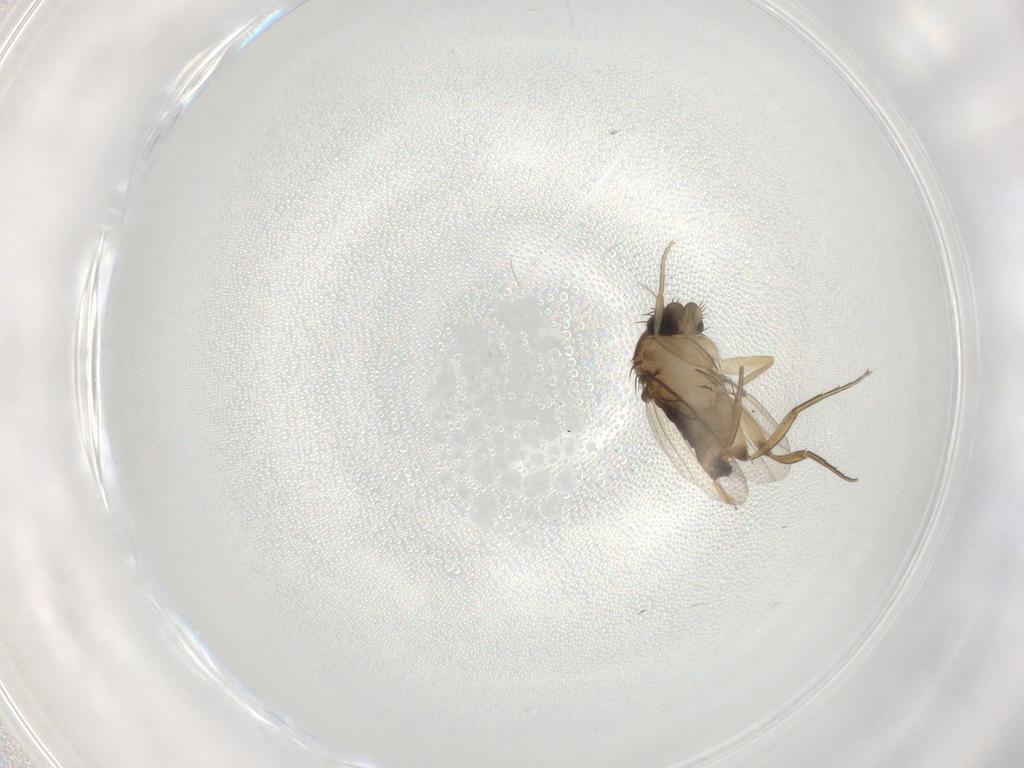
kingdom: Animalia
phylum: Arthropoda
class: Insecta
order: Diptera
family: Phoridae
